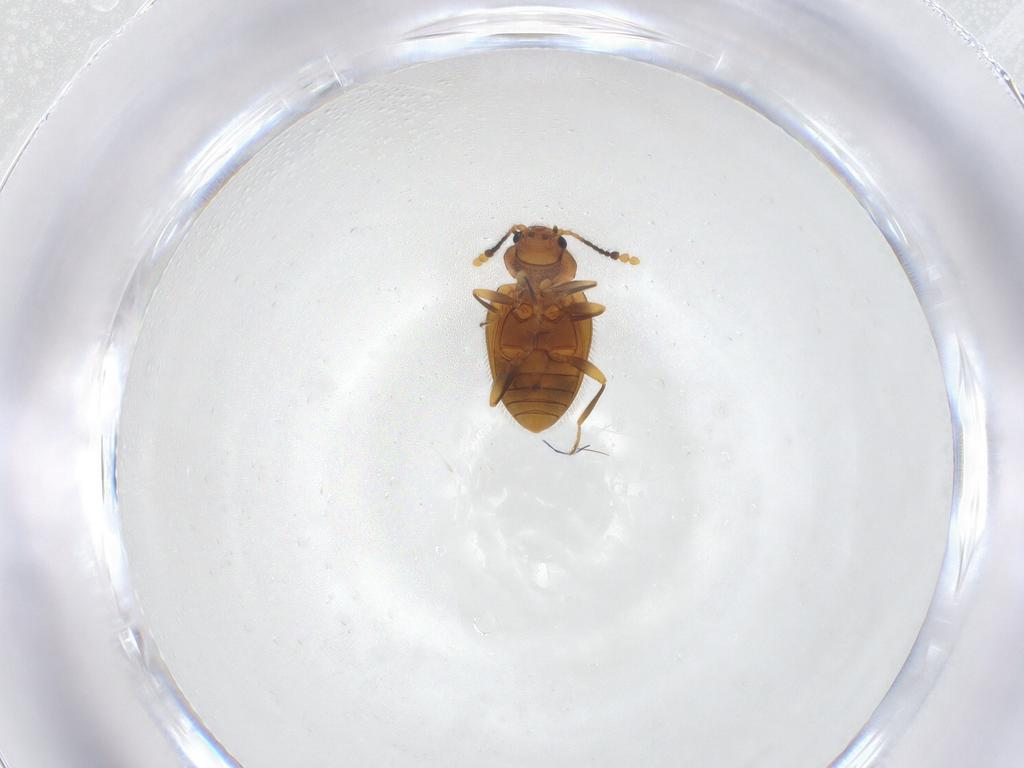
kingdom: Animalia
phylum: Arthropoda
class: Insecta
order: Coleoptera
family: Erotylidae
